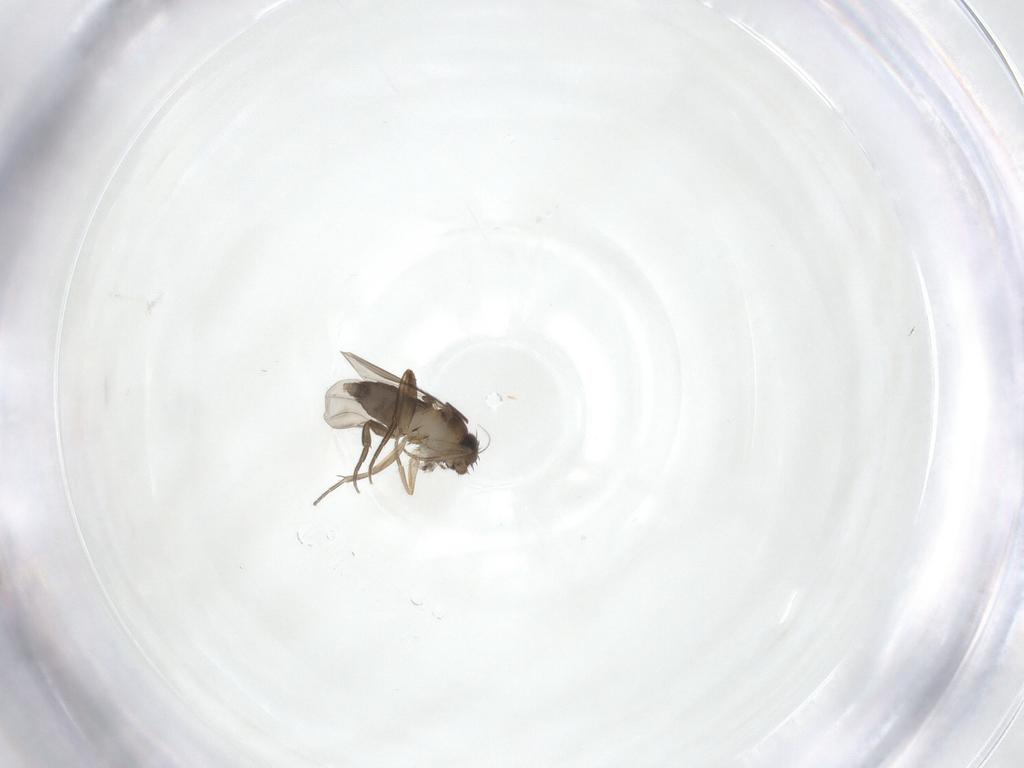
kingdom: Animalia
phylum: Arthropoda
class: Insecta
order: Diptera
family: Phoridae
